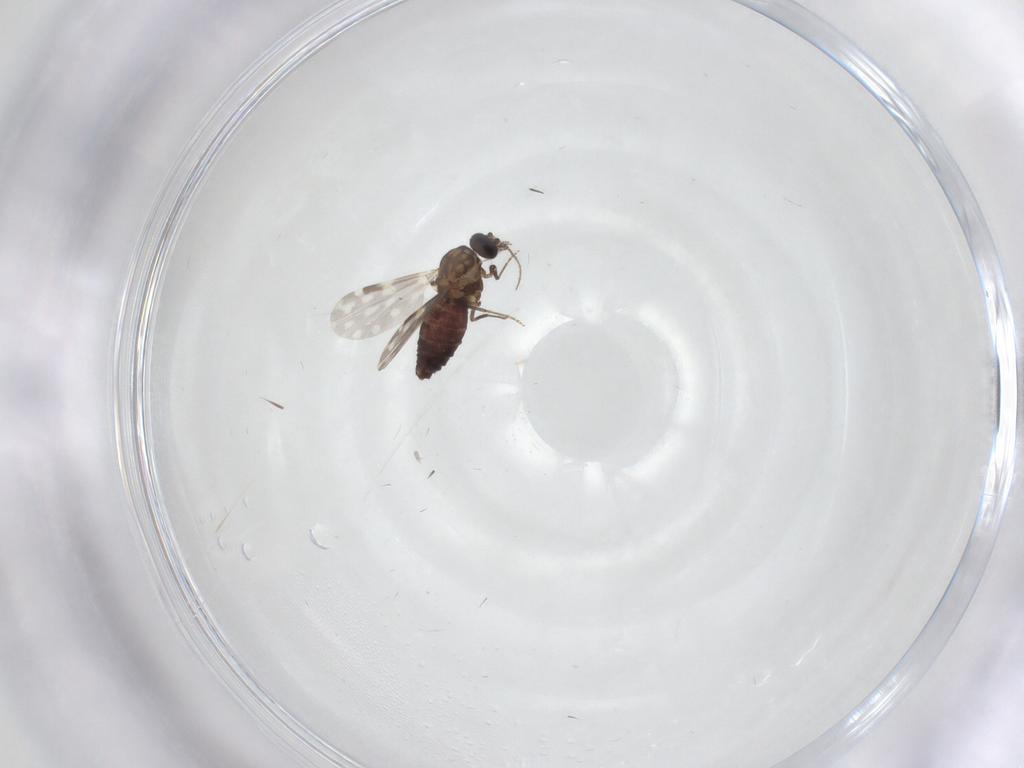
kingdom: Animalia
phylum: Arthropoda
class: Insecta
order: Diptera
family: Ceratopogonidae
